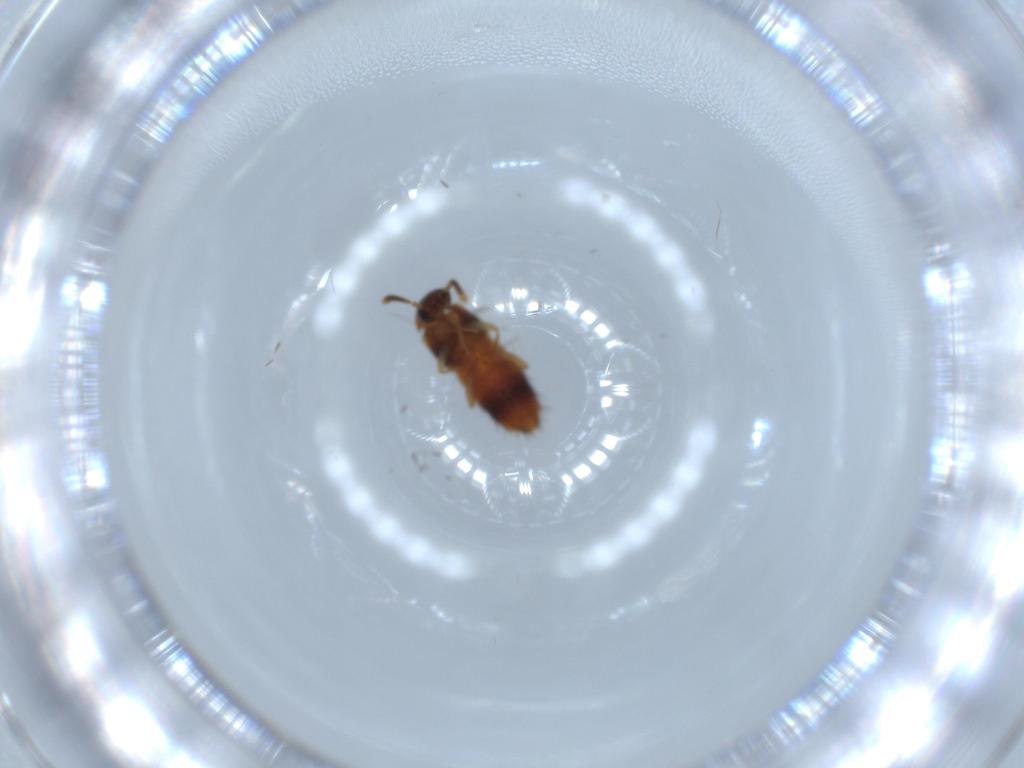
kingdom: Animalia
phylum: Arthropoda
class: Insecta
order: Coleoptera
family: Staphylinidae
